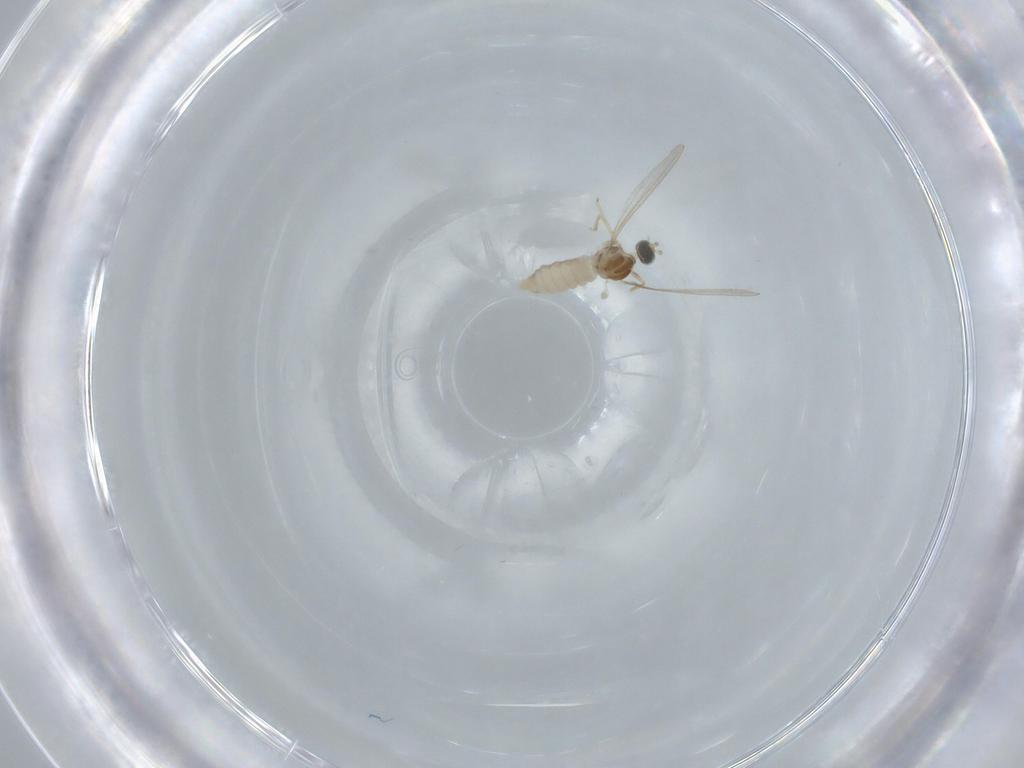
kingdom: Animalia
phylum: Arthropoda
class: Insecta
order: Diptera
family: Cecidomyiidae
